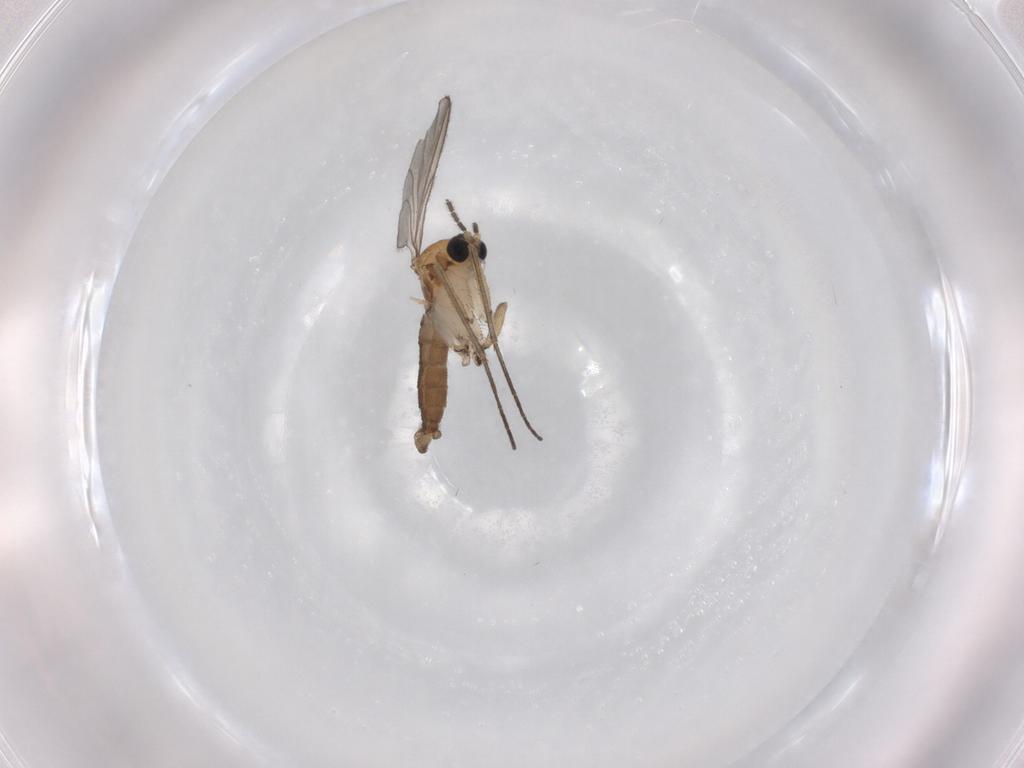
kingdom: Animalia
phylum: Arthropoda
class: Insecta
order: Diptera
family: Sciaridae
